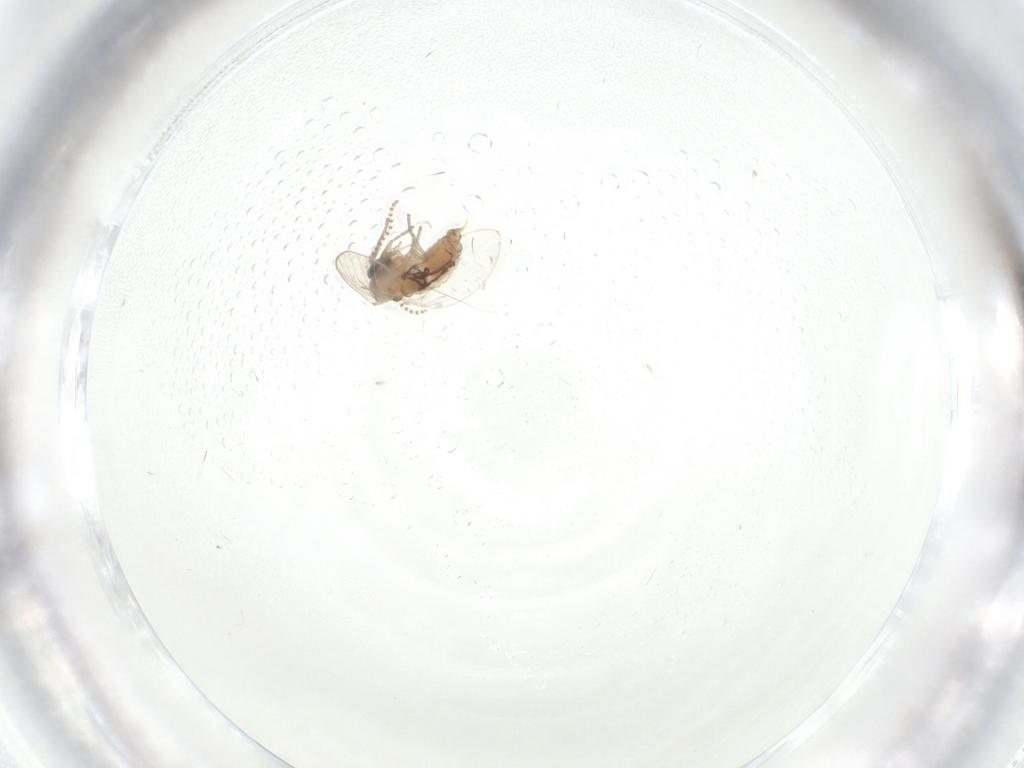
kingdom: Animalia
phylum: Arthropoda
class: Insecta
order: Diptera
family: Psychodidae
